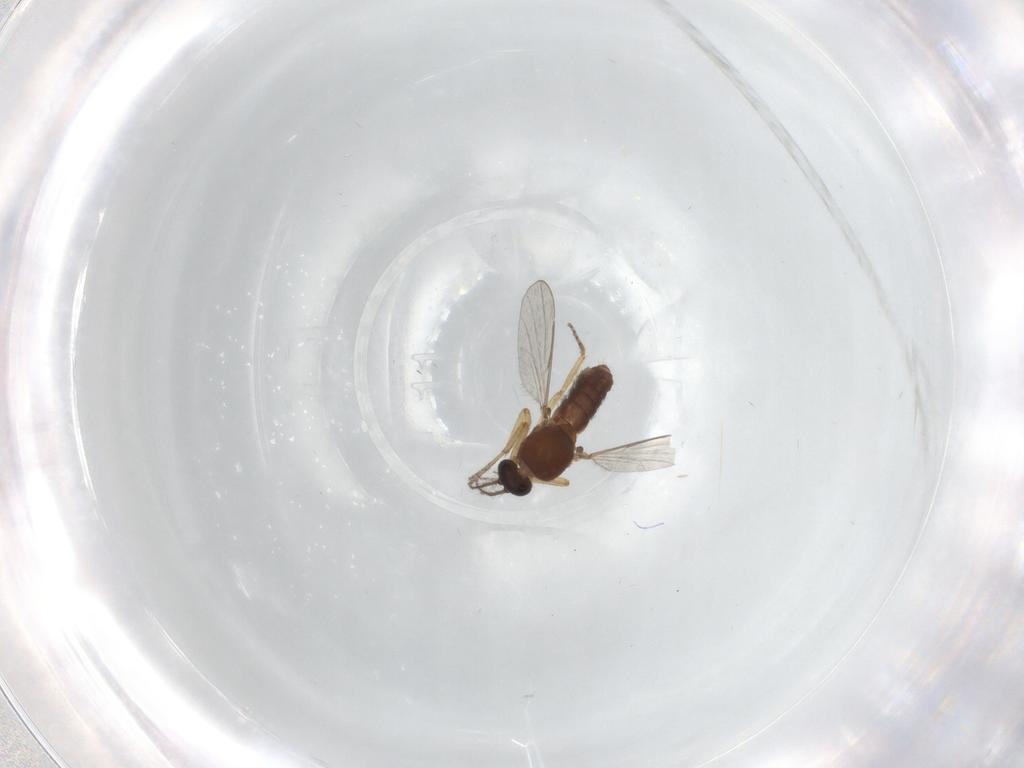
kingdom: Animalia
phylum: Arthropoda
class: Insecta
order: Diptera
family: Ceratopogonidae
